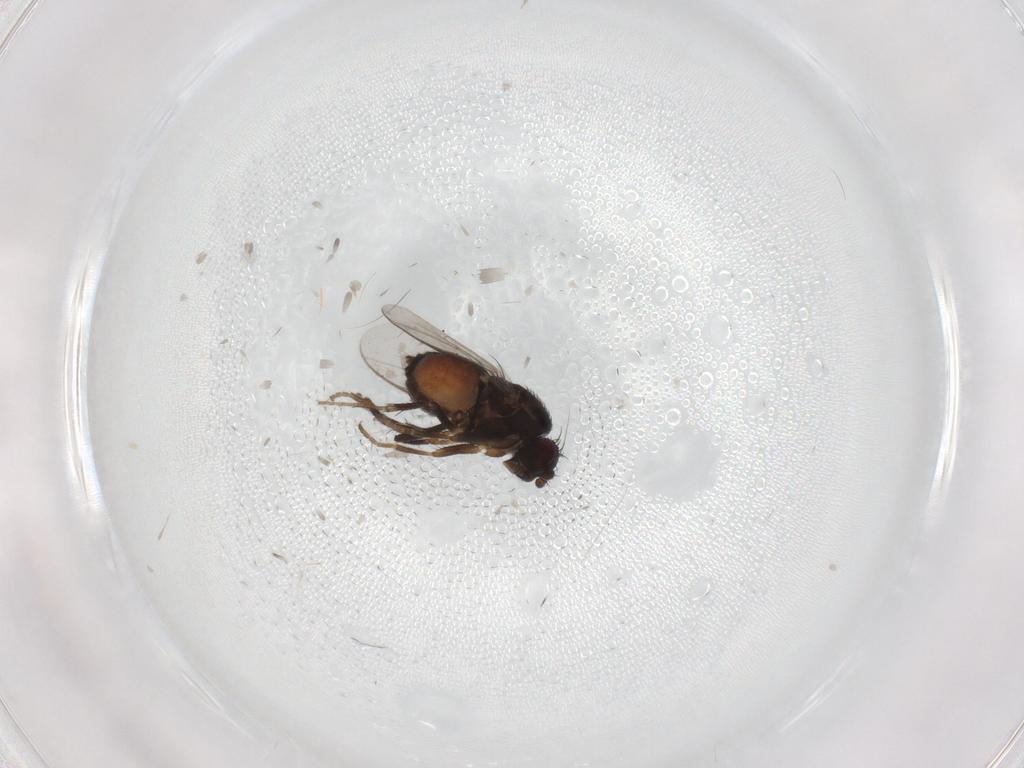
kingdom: Animalia
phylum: Arthropoda
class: Insecta
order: Diptera
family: Sphaeroceridae
